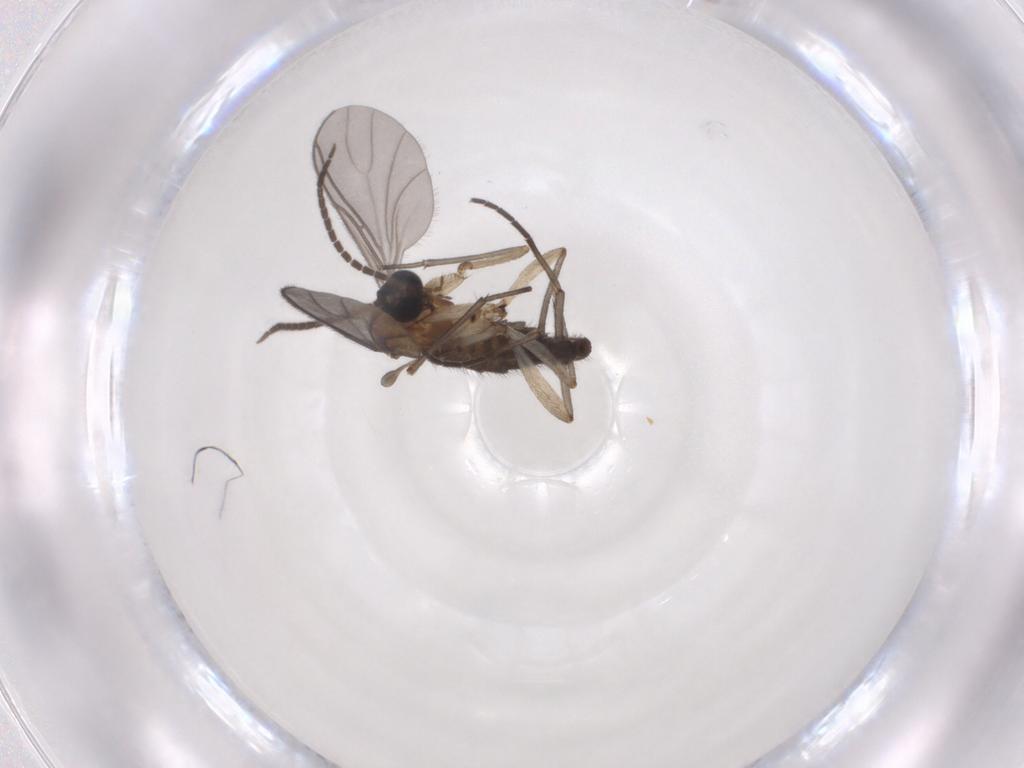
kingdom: Animalia
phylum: Arthropoda
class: Insecta
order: Diptera
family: Sciaridae
